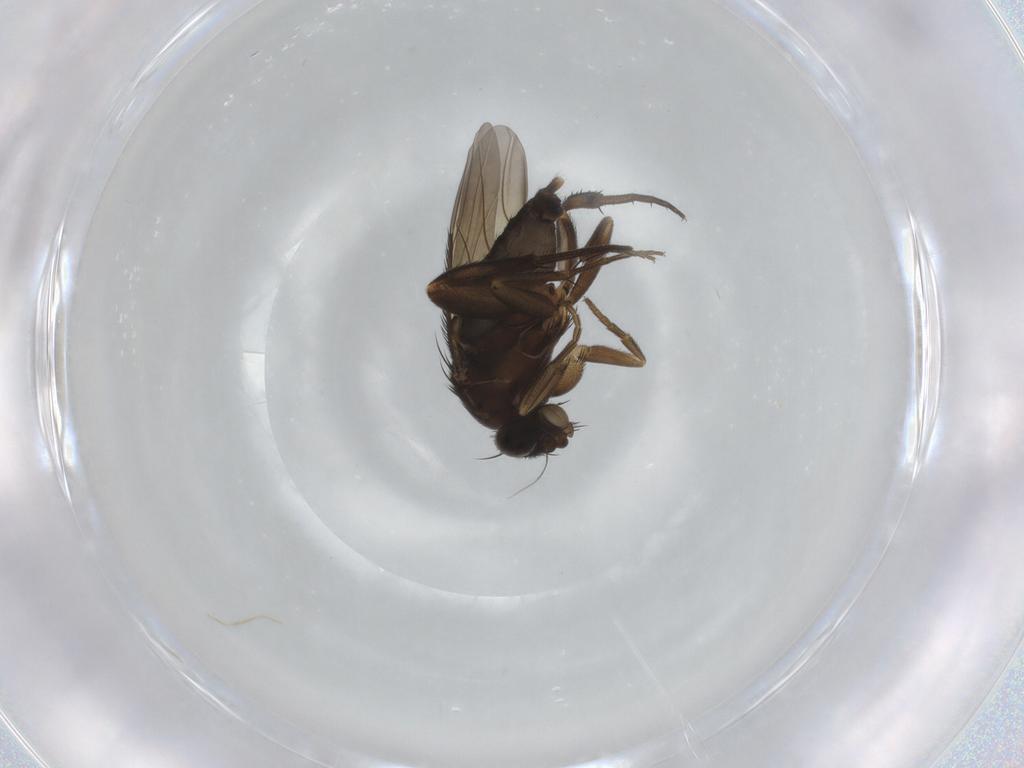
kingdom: Animalia
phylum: Arthropoda
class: Insecta
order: Diptera
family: Phoridae
